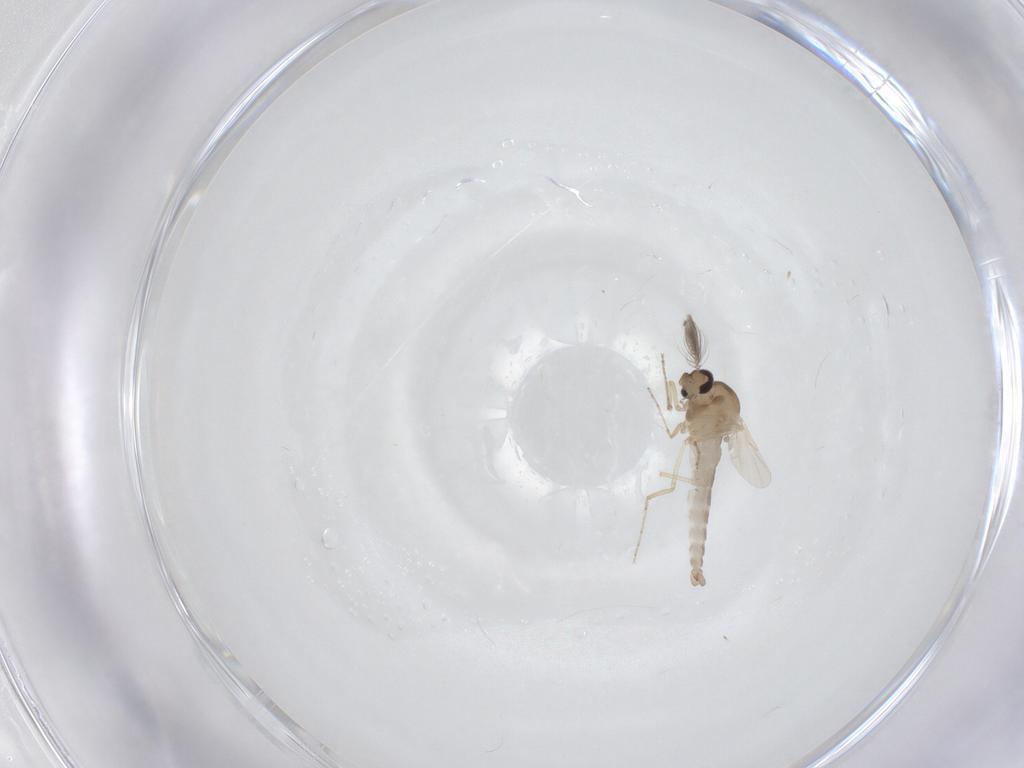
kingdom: Animalia
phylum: Arthropoda
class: Insecta
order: Diptera
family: Ceratopogonidae
